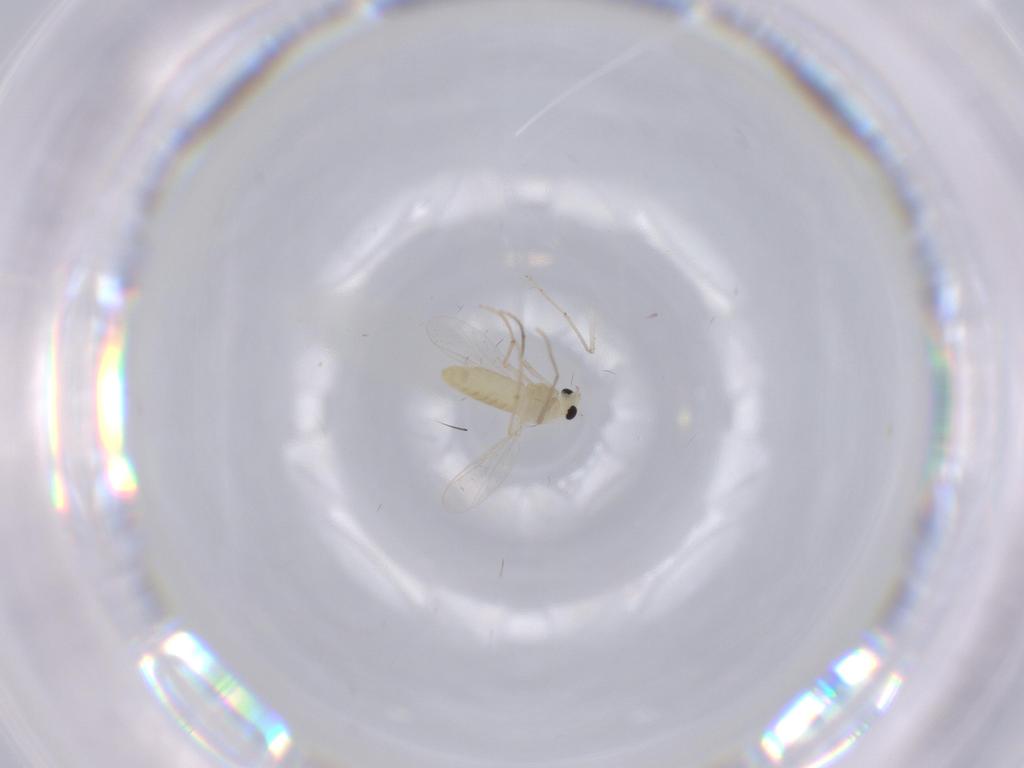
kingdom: Animalia
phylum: Arthropoda
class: Insecta
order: Diptera
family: Chironomidae
